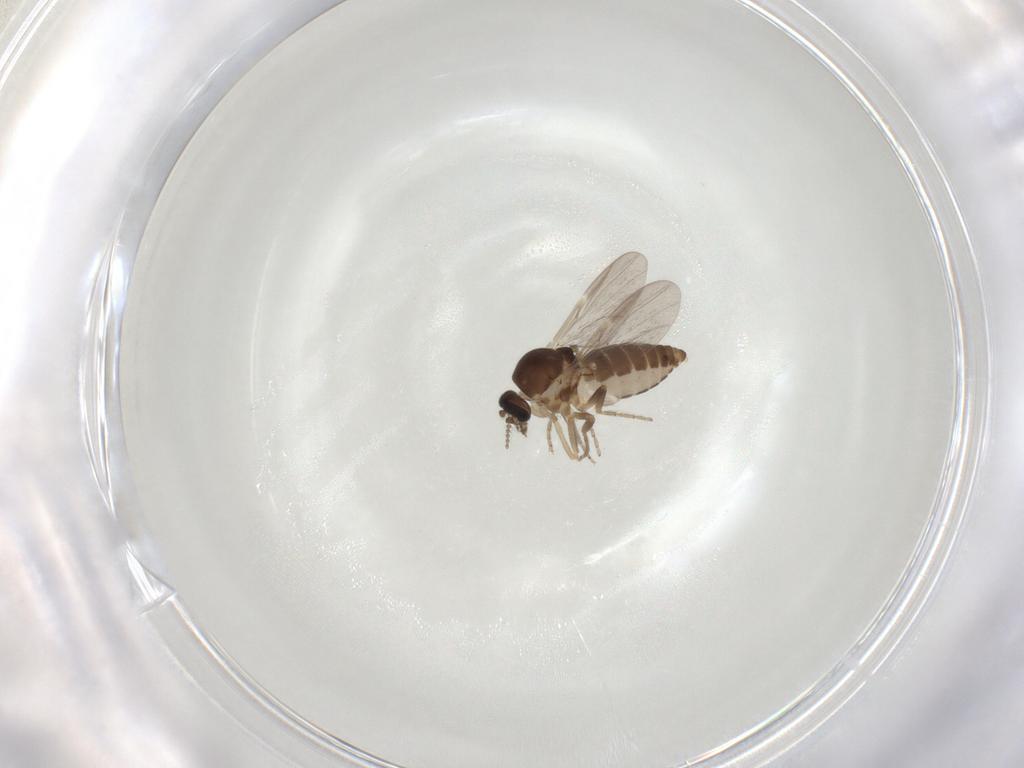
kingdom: Animalia
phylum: Arthropoda
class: Insecta
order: Diptera
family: Ceratopogonidae
